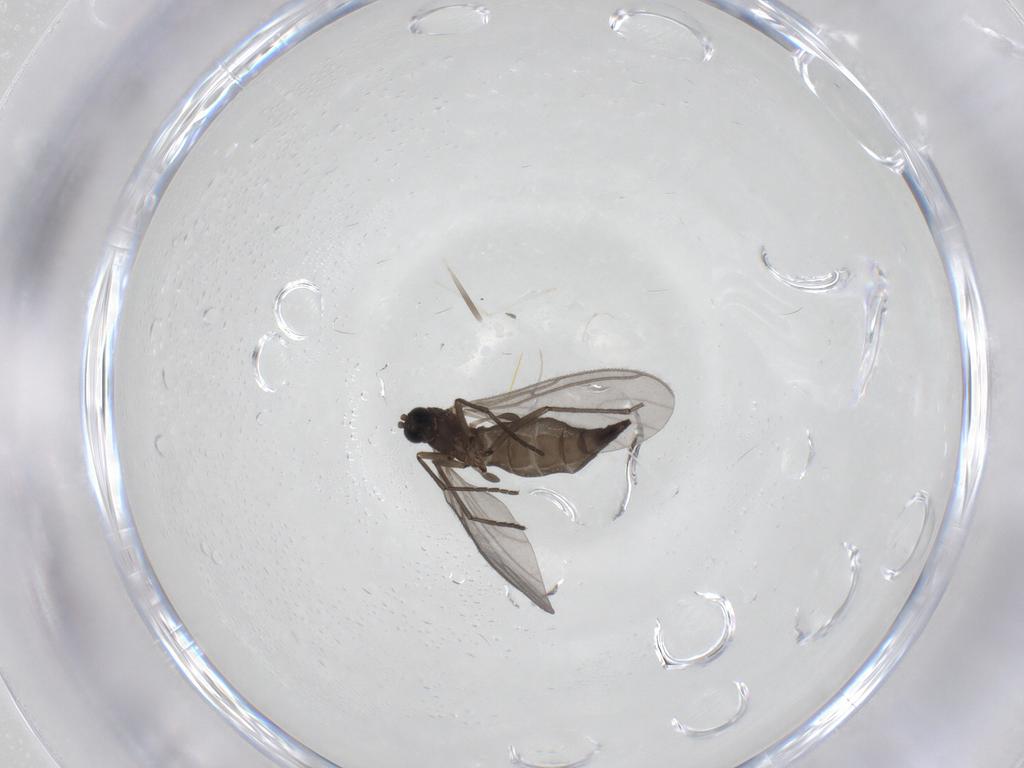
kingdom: Animalia
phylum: Arthropoda
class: Insecta
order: Diptera
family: Sciaridae
